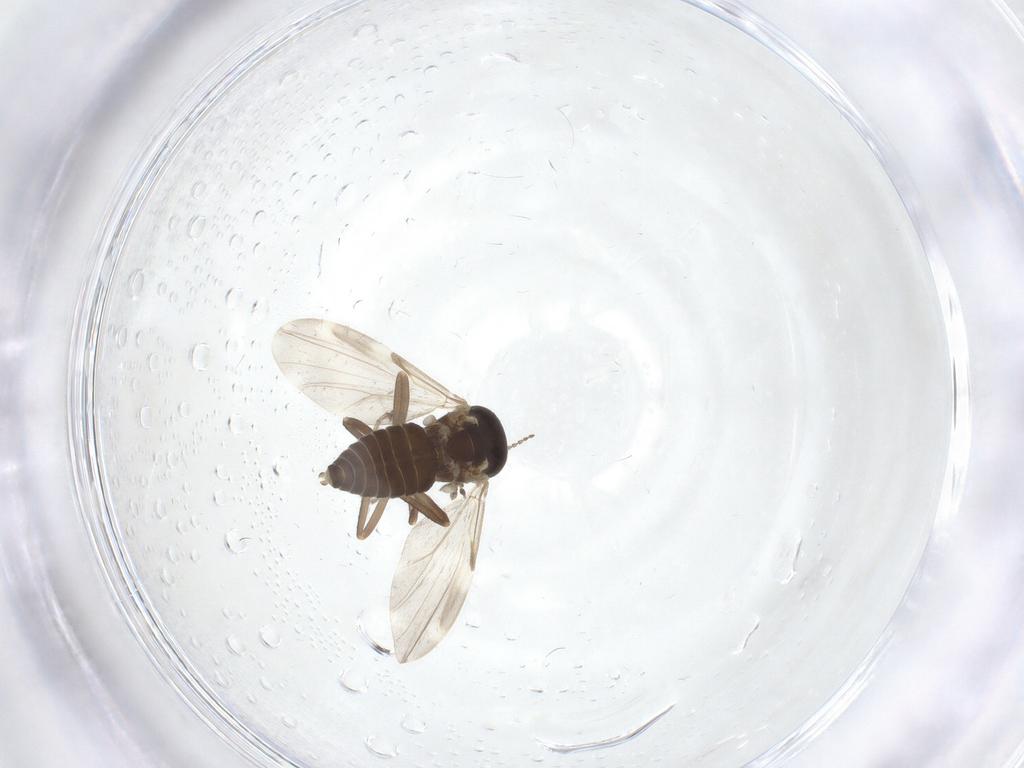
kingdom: Animalia
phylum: Arthropoda
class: Insecta
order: Diptera
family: Ceratopogonidae
